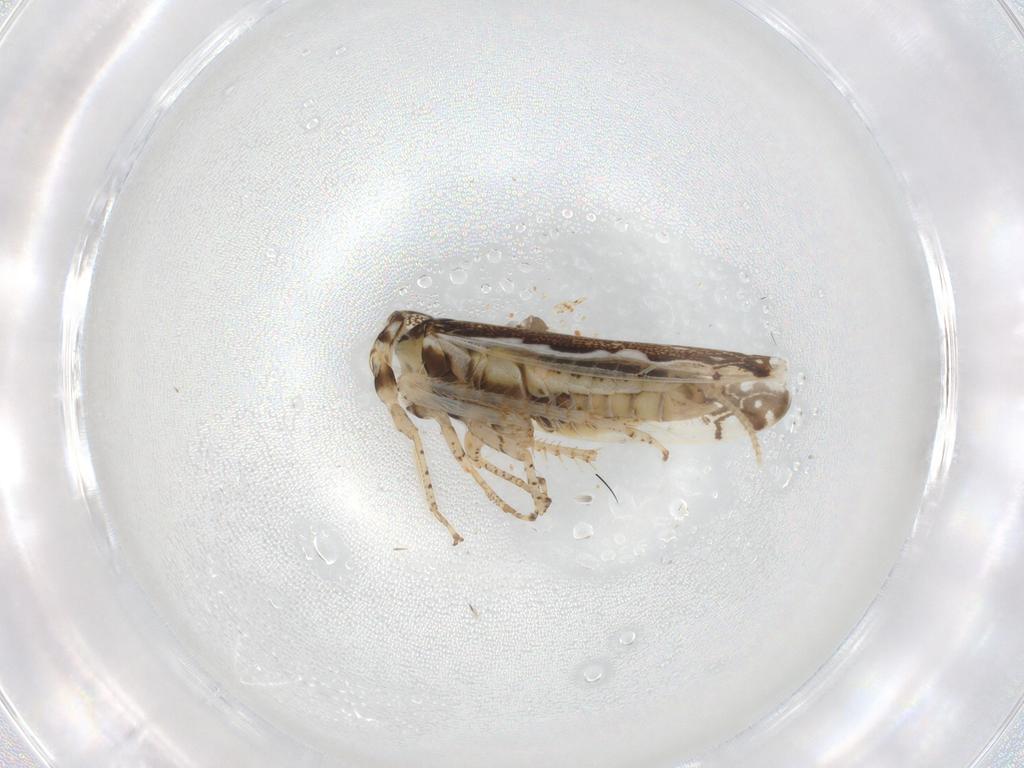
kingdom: Animalia
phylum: Arthropoda
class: Insecta
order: Hemiptera
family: Cicadellidae
